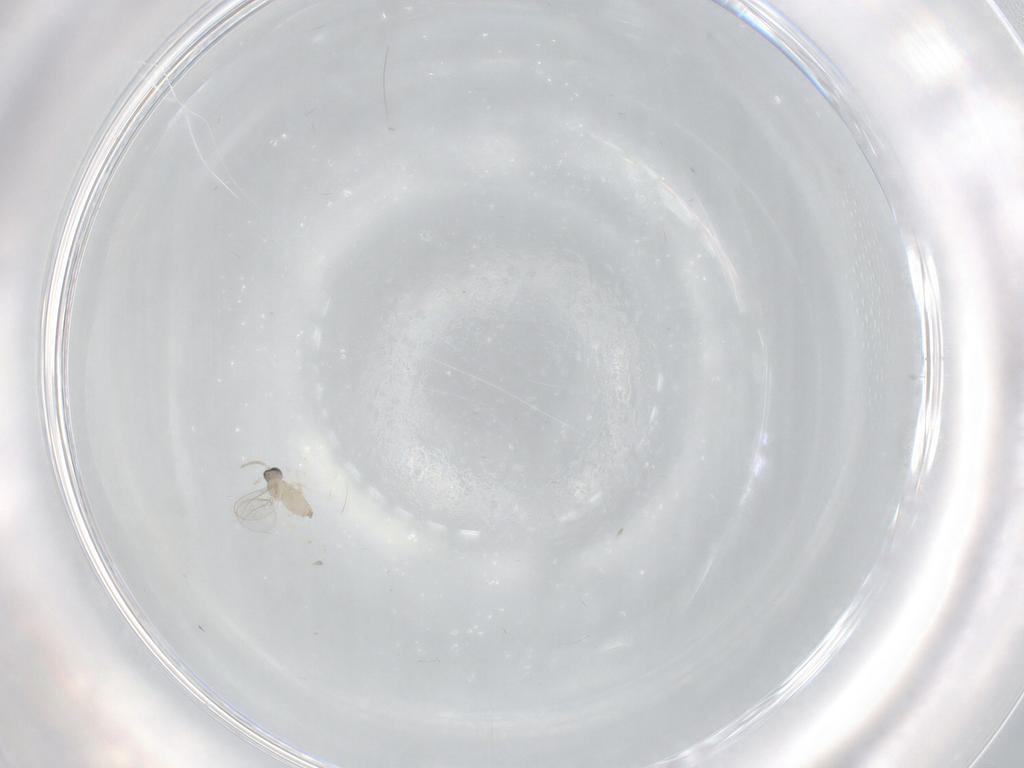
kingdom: Animalia
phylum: Arthropoda
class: Insecta
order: Diptera
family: Cecidomyiidae
